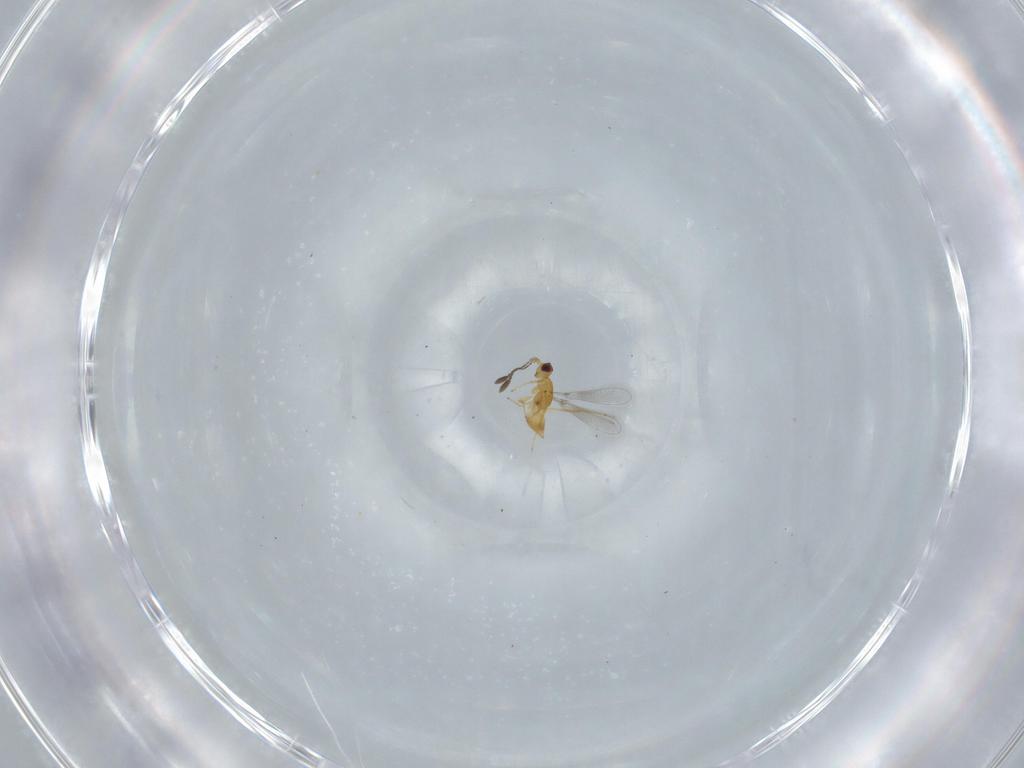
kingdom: Animalia
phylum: Arthropoda
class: Insecta
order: Hymenoptera
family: Mymaridae
